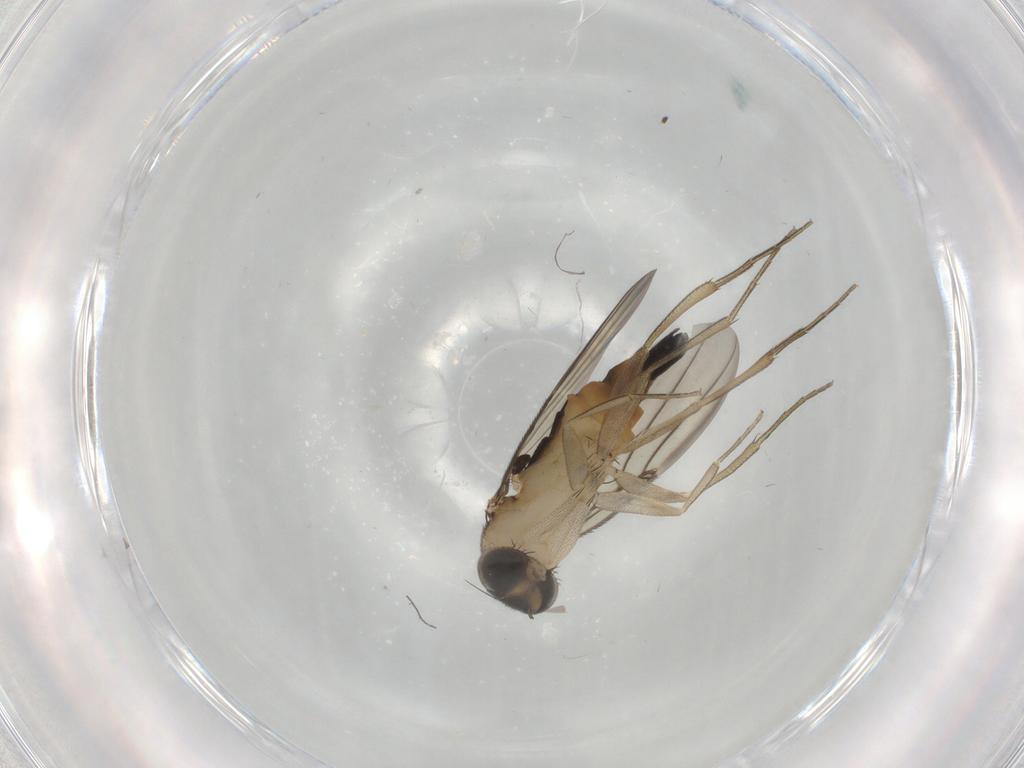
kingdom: Animalia
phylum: Arthropoda
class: Insecta
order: Diptera
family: Phoridae
